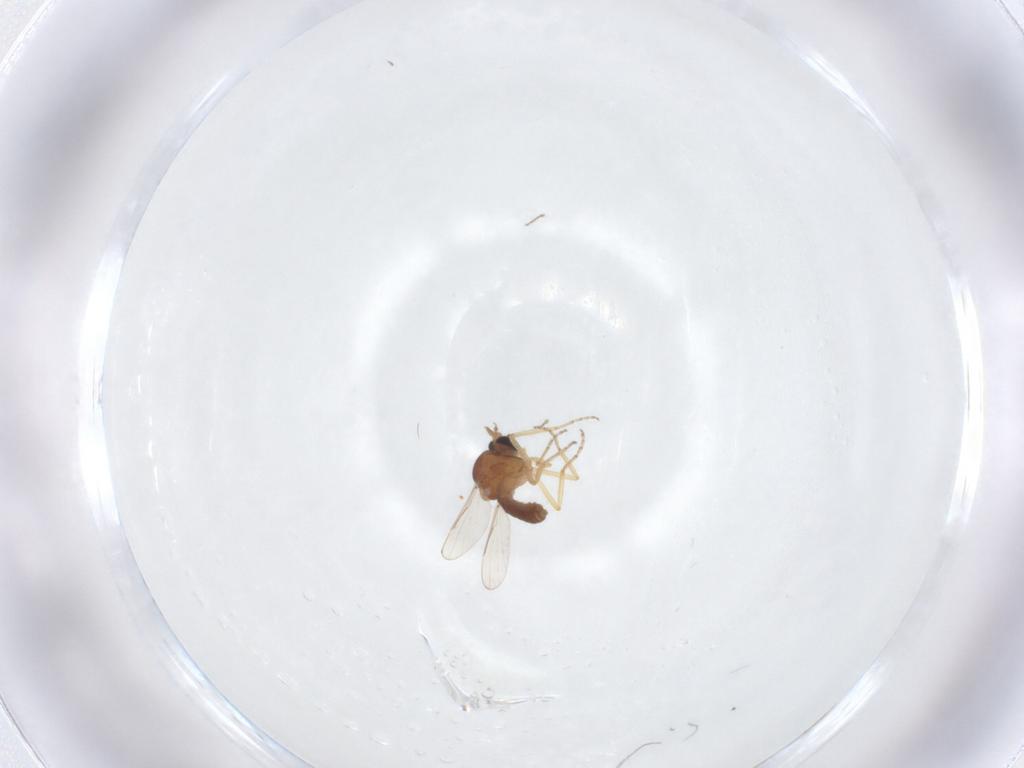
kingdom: Animalia
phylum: Arthropoda
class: Insecta
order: Diptera
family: Ceratopogonidae
